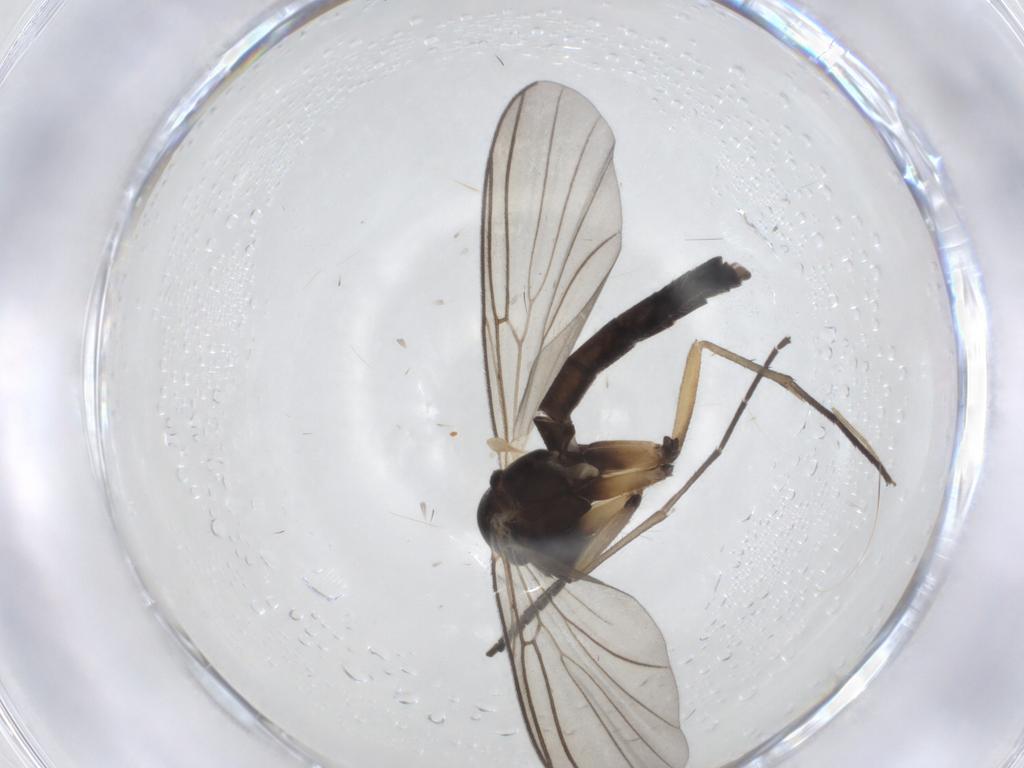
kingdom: Animalia
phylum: Arthropoda
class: Insecta
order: Diptera
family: Mycetophilidae
